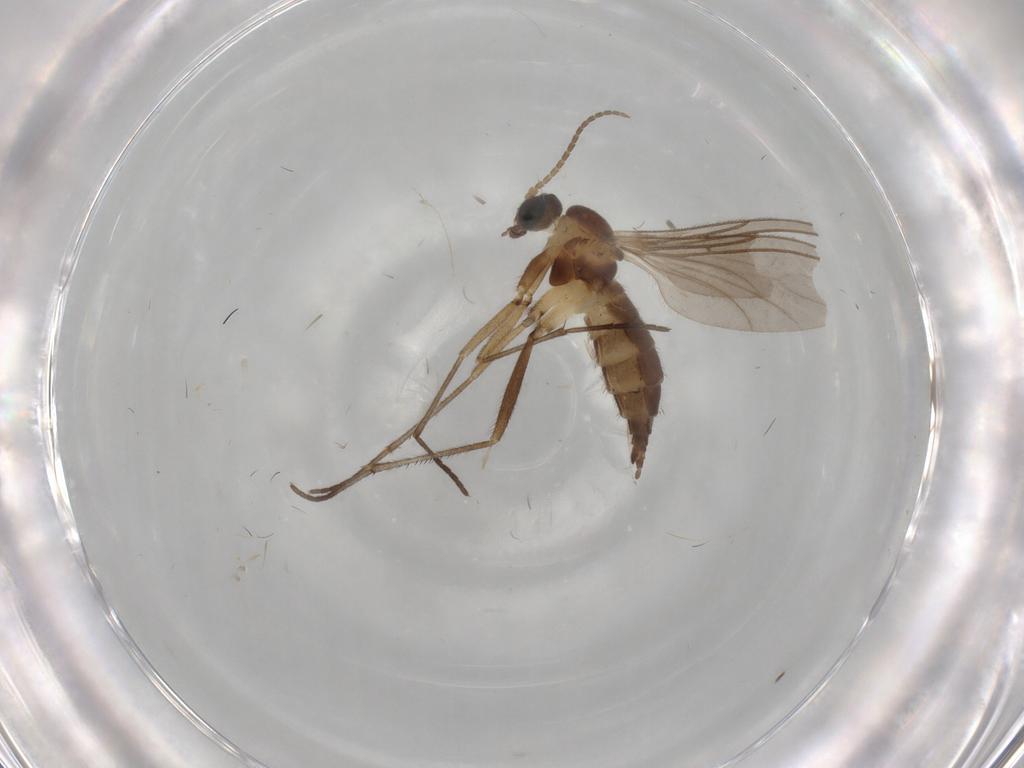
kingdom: Animalia
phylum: Arthropoda
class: Insecta
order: Diptera
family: Sciaridae
